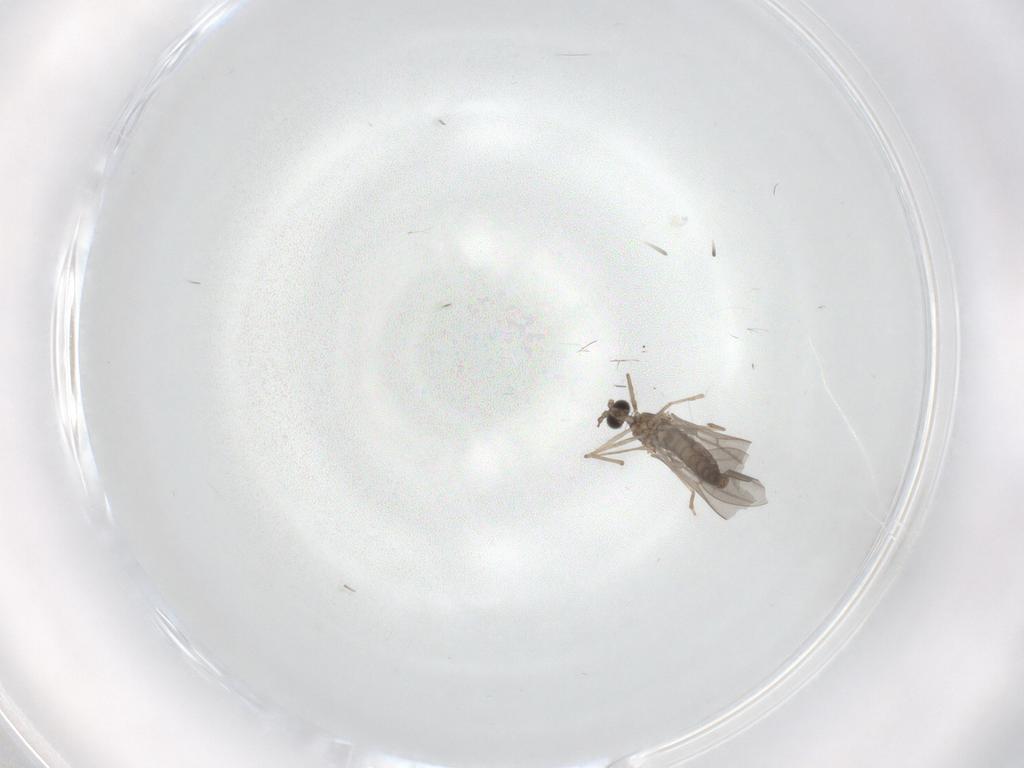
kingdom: Animalia
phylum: Arthropoda
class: Insecta
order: Diptera
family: Cecidomyiidae
